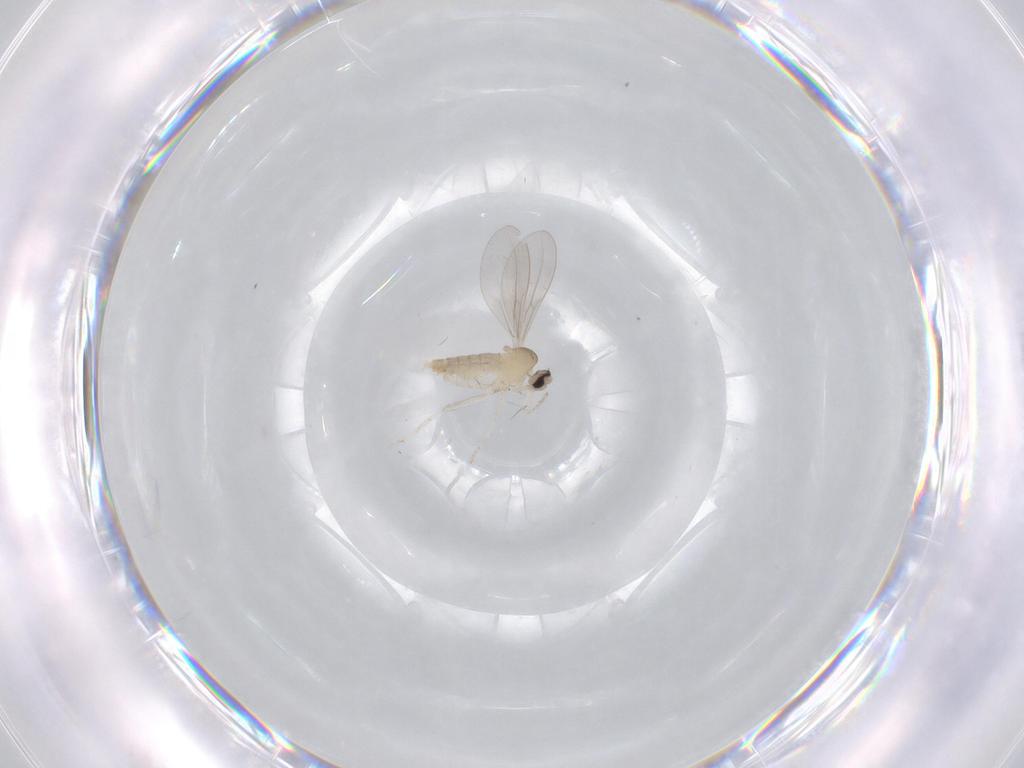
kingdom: Animalia
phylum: Arthropoda
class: Insecta
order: Diptera
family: Cecidomyiidae
